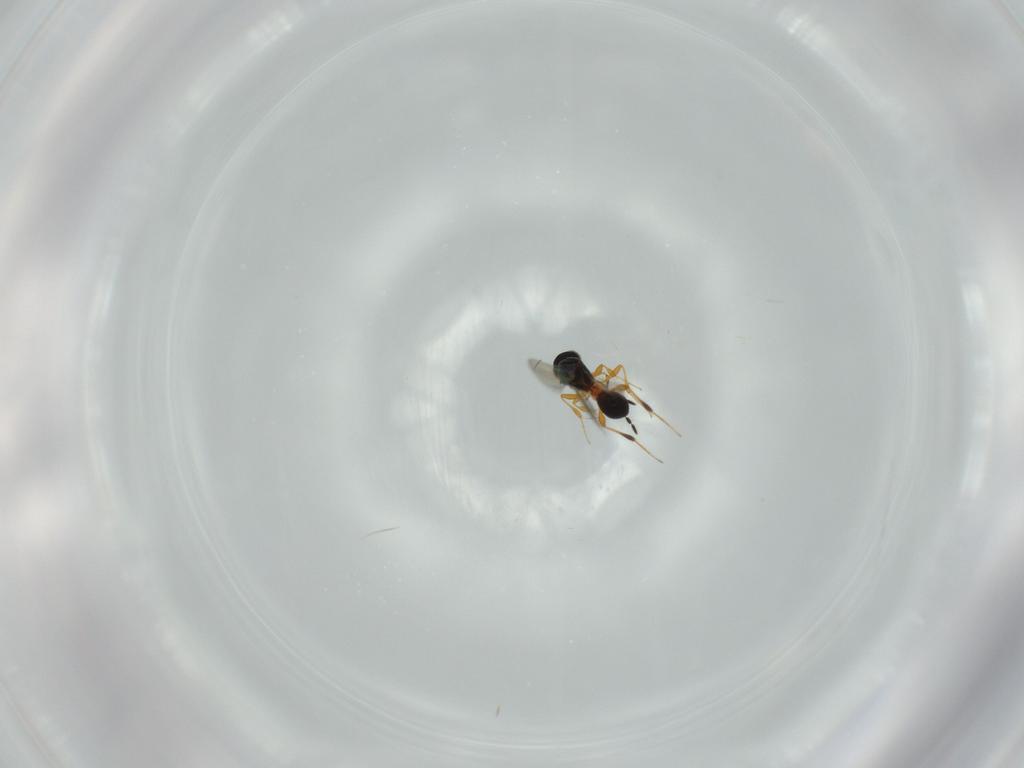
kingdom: Animalia
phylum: Arthropoda
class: Insecta
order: Hymenoptera
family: Platygastridae
